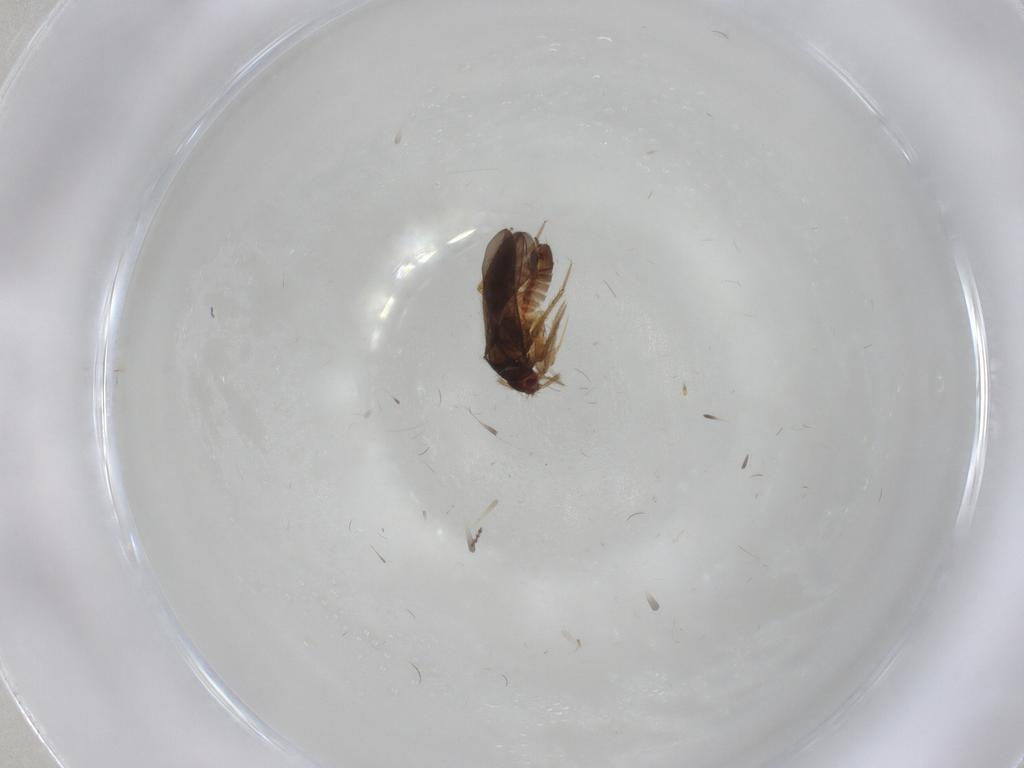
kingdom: Animalia
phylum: Arthropoda
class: Insecta
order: Hemiptera
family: Ceratocombidae
